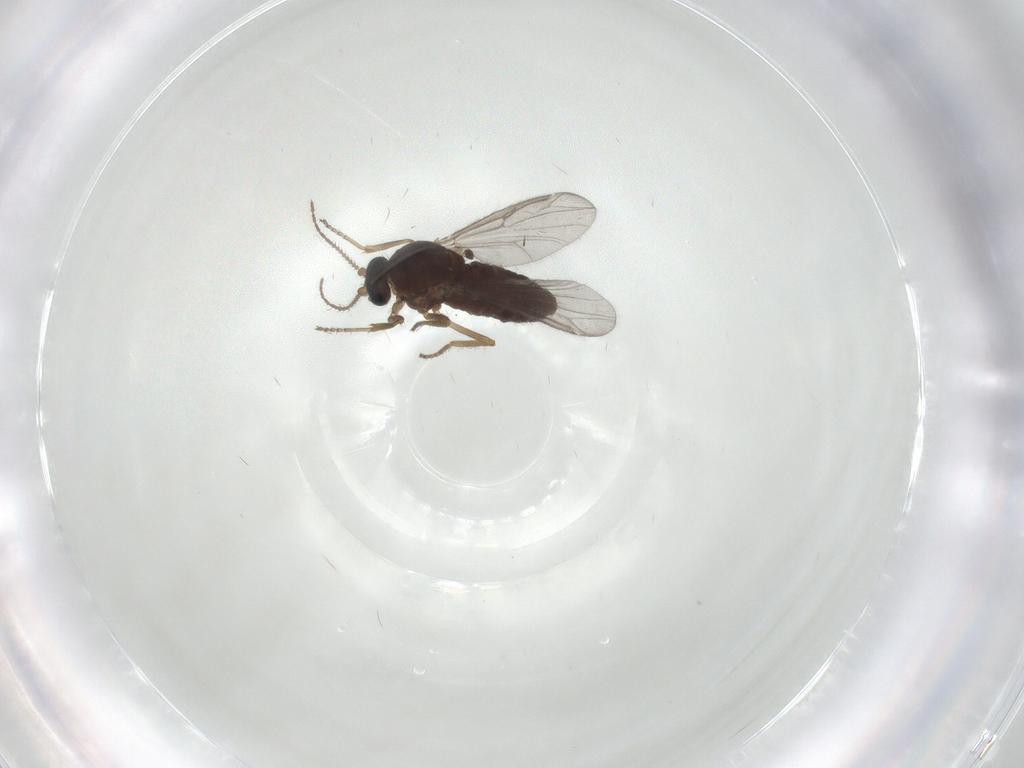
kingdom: Animalia
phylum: Arthropoda
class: Insecta
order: Diptera
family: Ceratopogonidae
